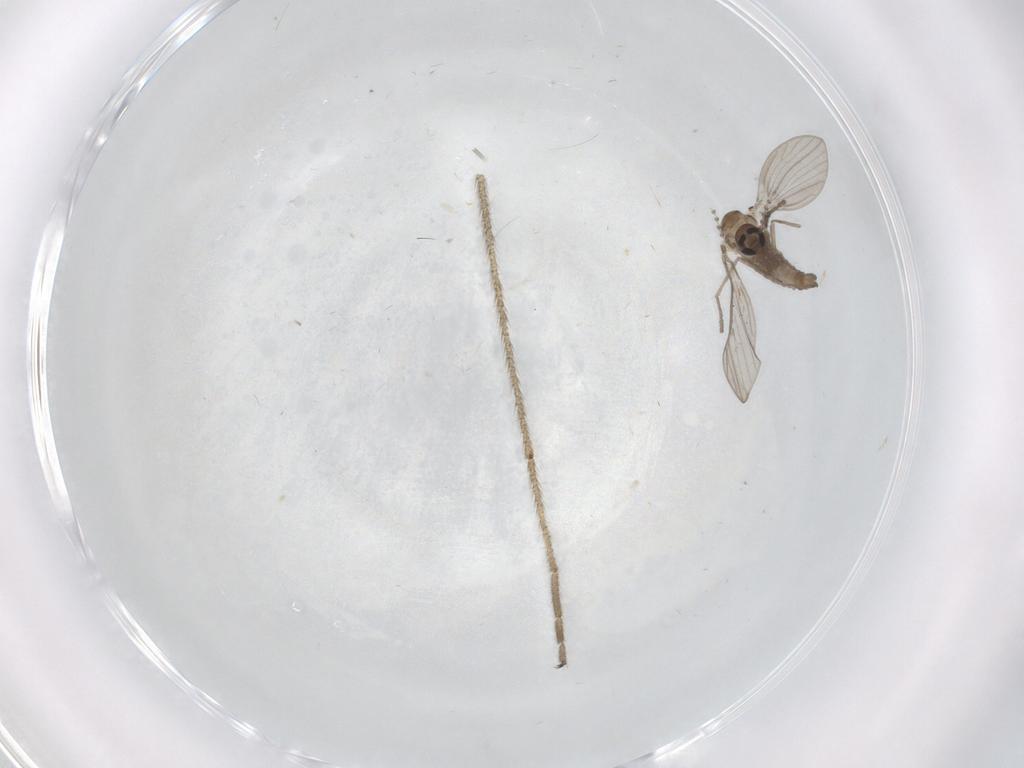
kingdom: Animalia
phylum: Arthropoda
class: Insecta
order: Diptera
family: Psychodidae
